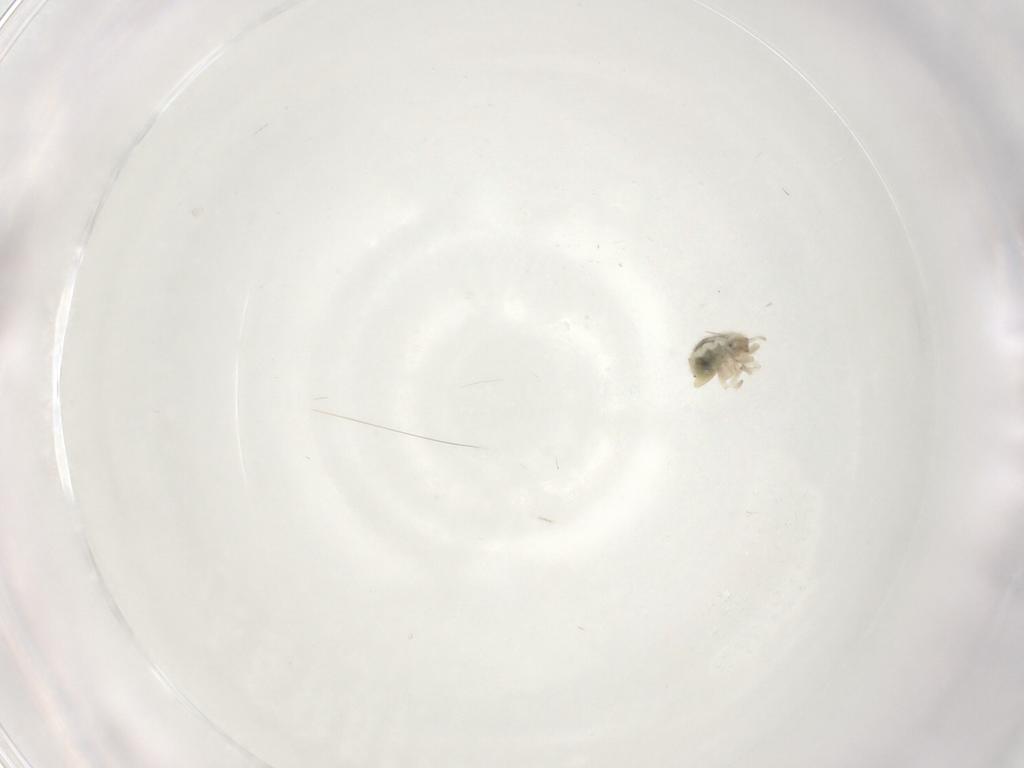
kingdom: Animalia
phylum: Arthropoda
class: Insecta
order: Diptera
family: Cecidomyiidae
